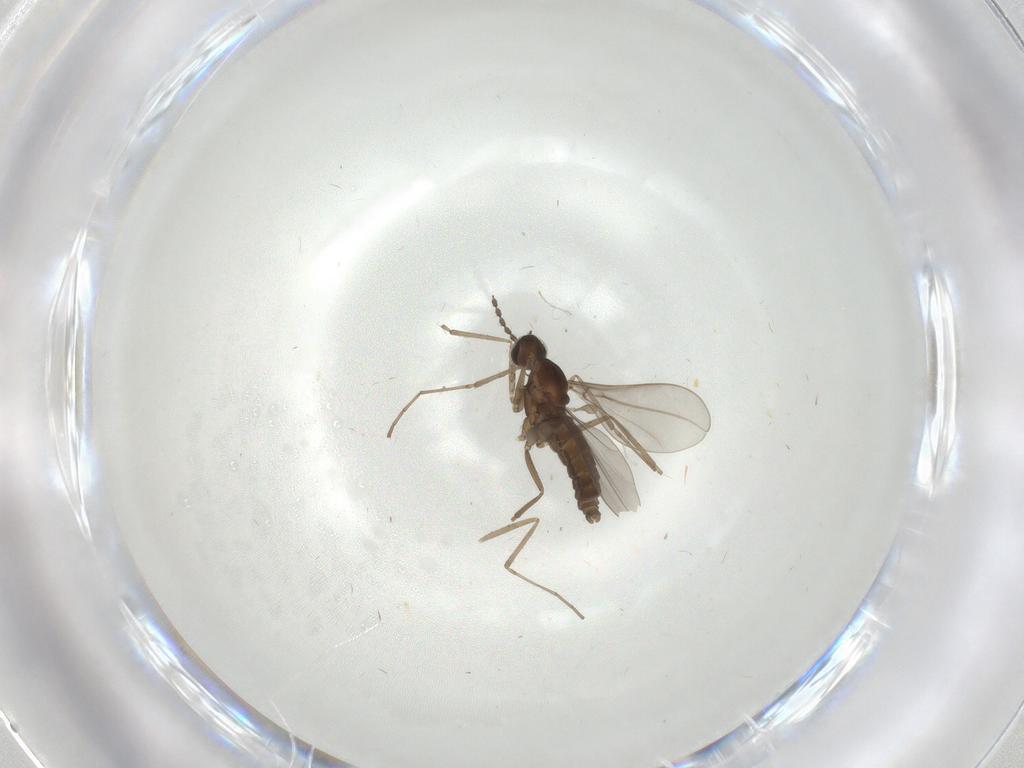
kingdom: Animalia
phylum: Arthropoda
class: Insecta
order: Diptera
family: Cecidomyiidae
